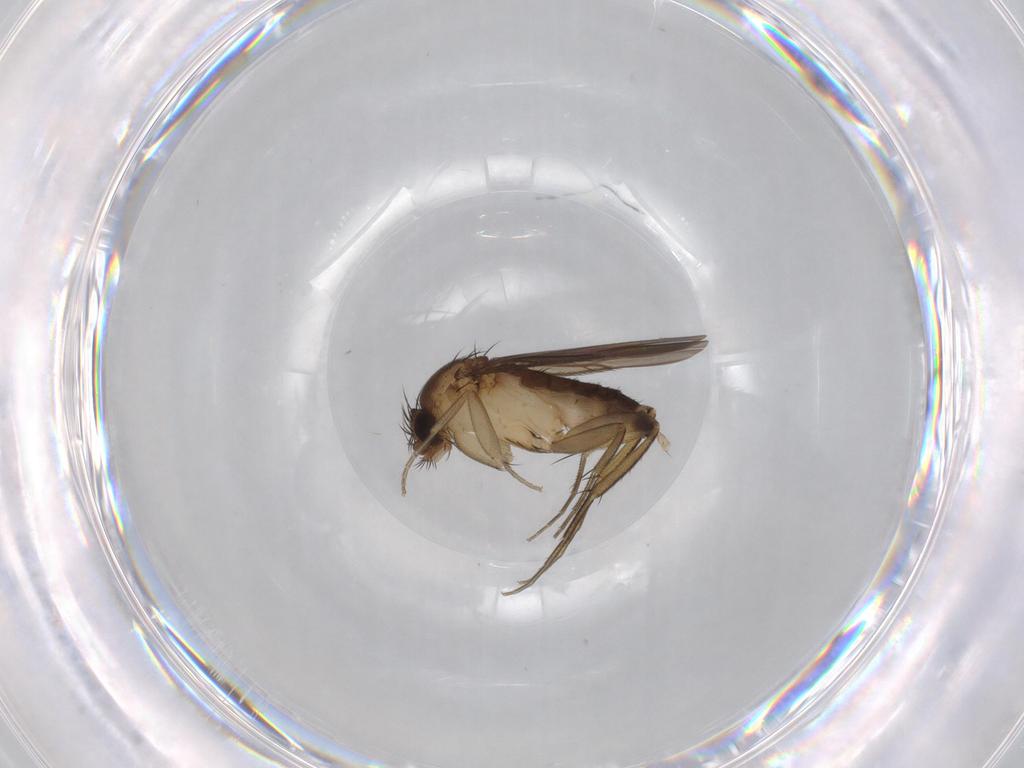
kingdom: Animalia
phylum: Arthropoda
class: Insecta
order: Diptera
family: Phoridae
